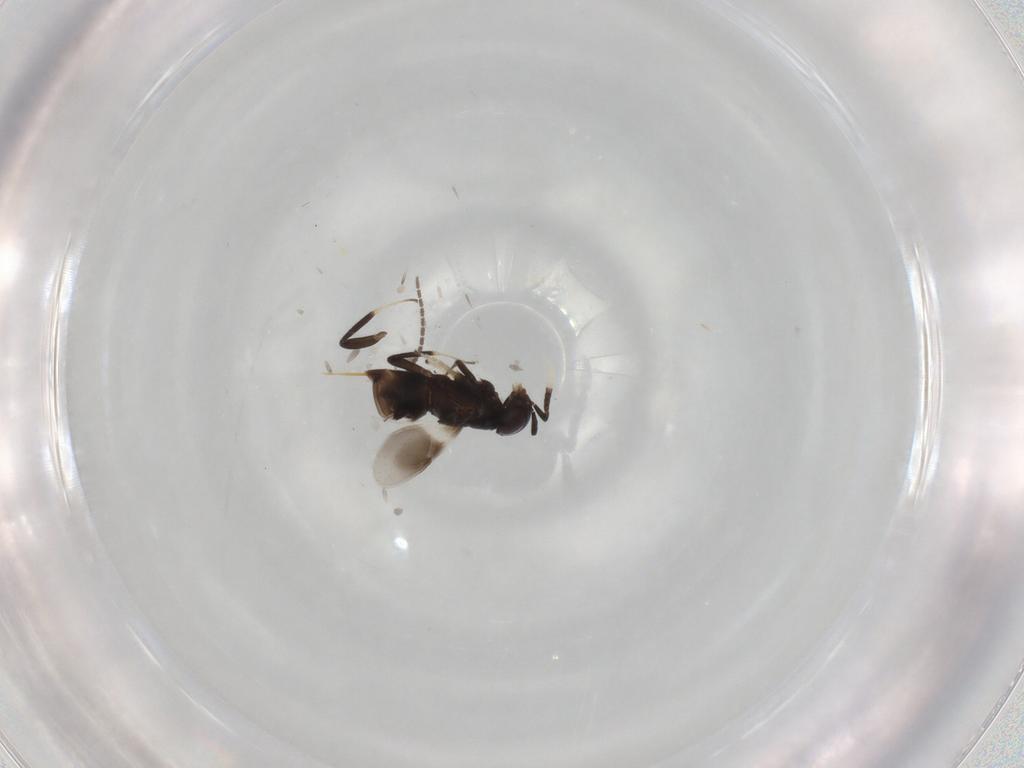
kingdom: Animalia
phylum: Arthropoda
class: Insecta
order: Hymenoptera
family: Encyrtidae
